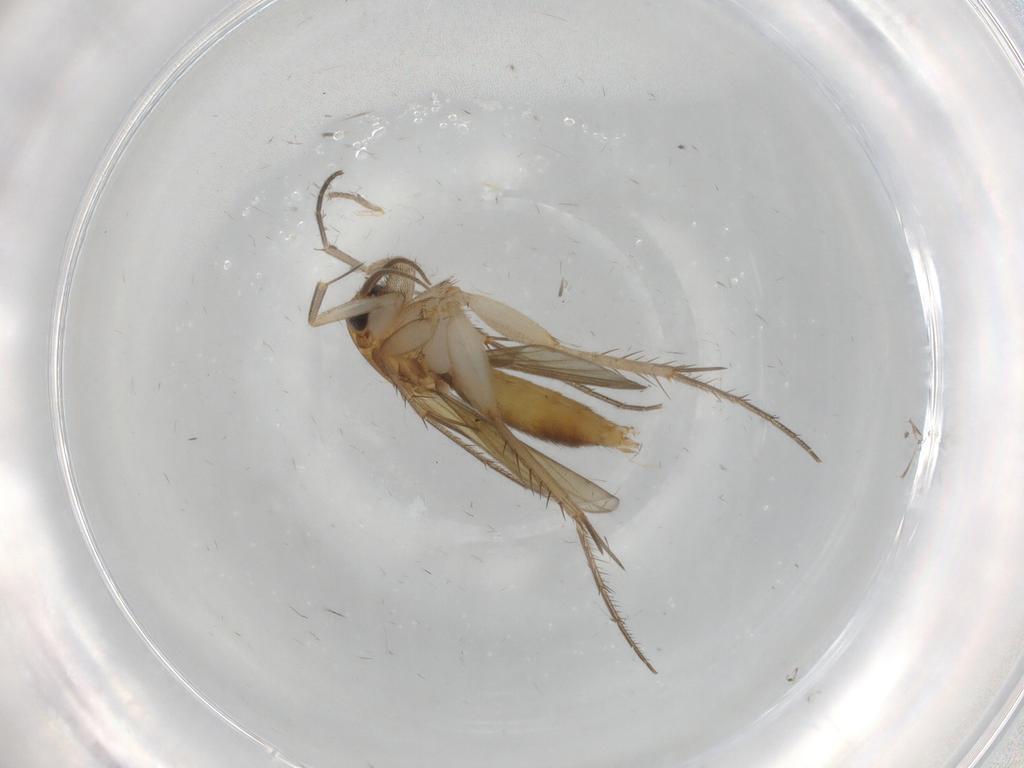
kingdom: Animalia
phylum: Arthropoda
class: Insecta
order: Diptera
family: Mycetophilidae
